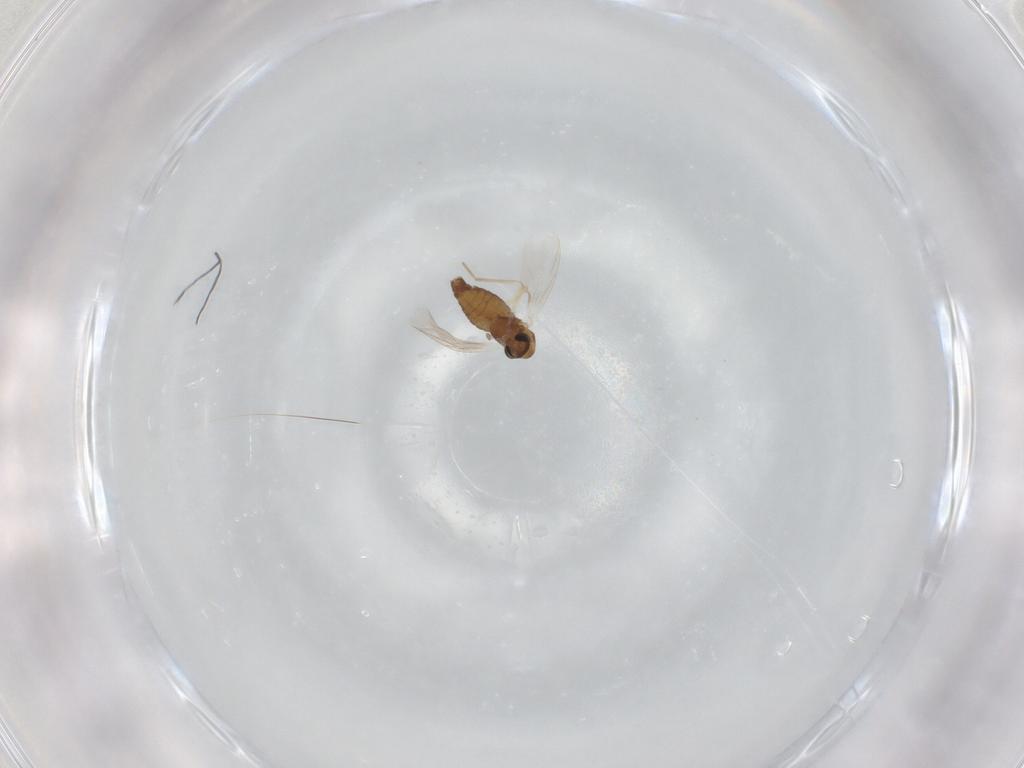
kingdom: Animalia
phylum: Arthropoda
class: Insecta
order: Diptera
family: Chironomidae
